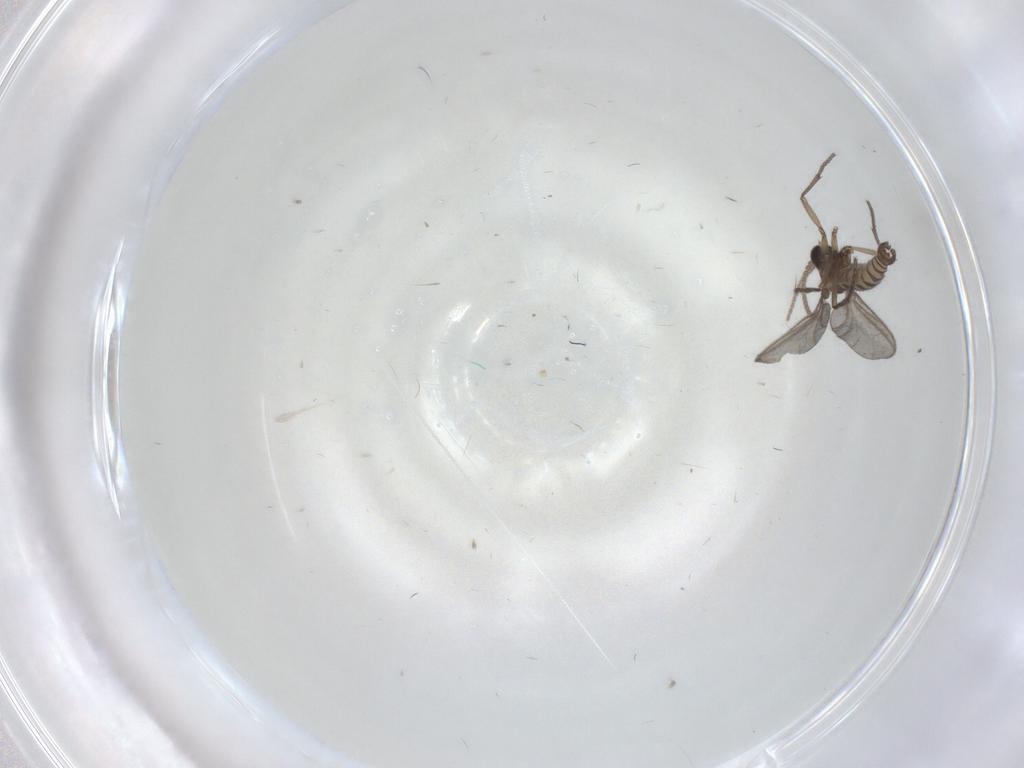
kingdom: Animalia
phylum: Arthropoda
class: Insecta
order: Diptera
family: Sciaridae
